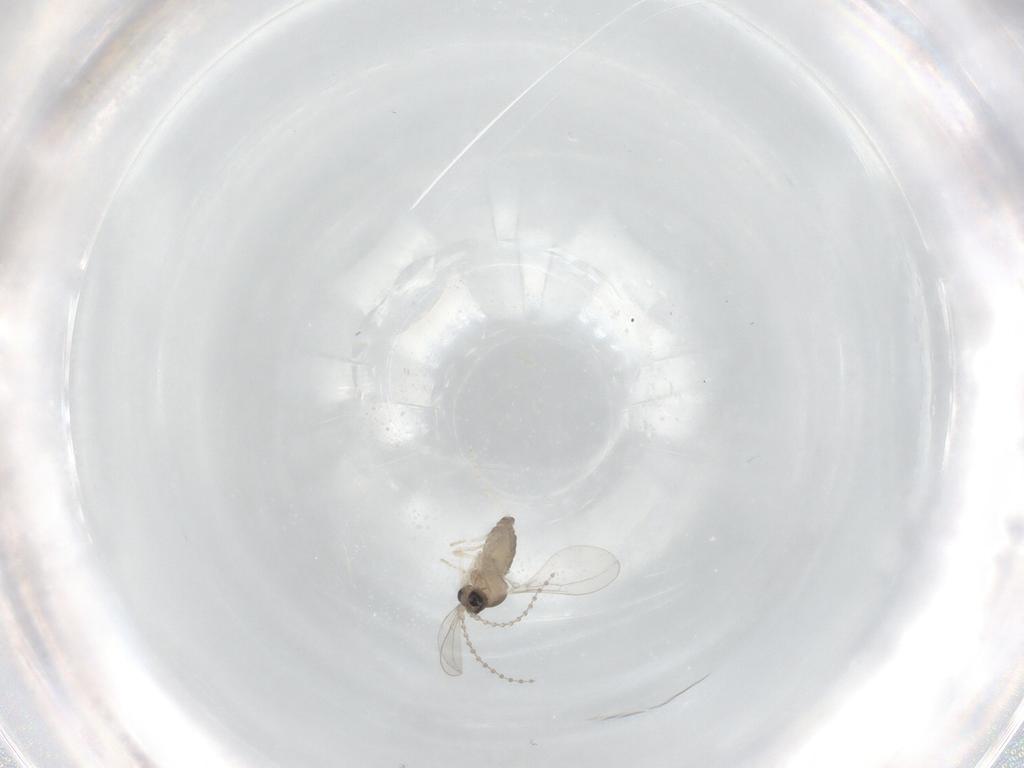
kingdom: Animalia
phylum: Arthropoda
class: Insecta
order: Diptera
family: Cecidomyiidae
